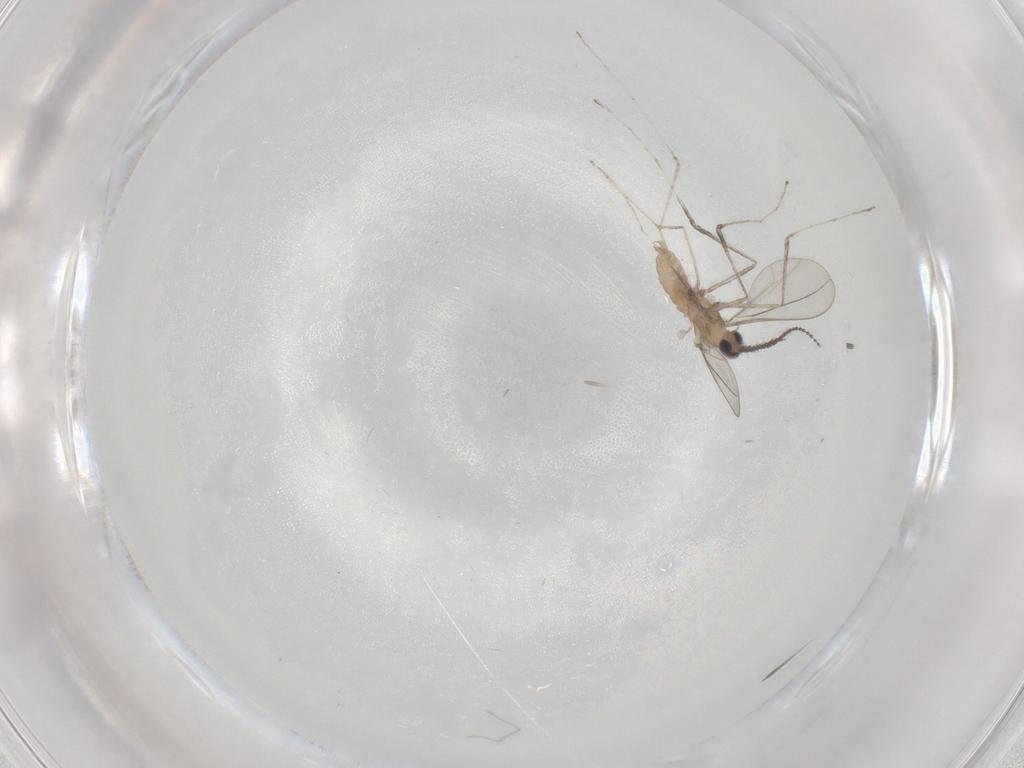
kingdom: Animalia
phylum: Arthropoda
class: Insecta
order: Diptera
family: Cecidomyiidae
